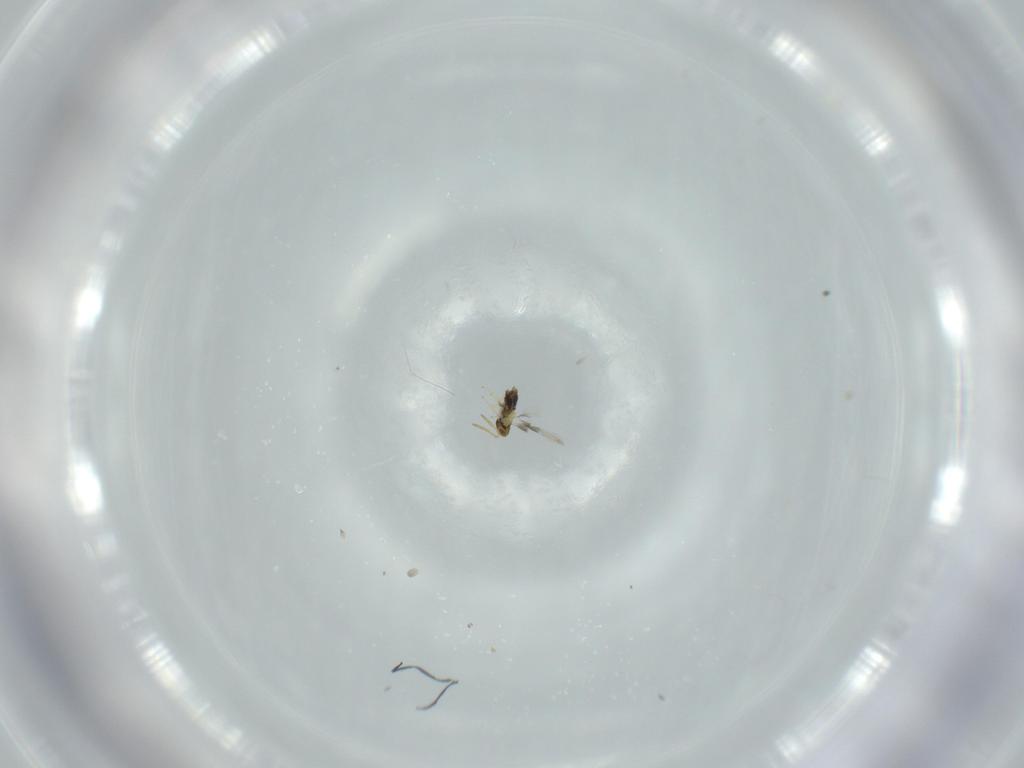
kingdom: Animalia
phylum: Arthropoda
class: Insecta
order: Hymenoptera
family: Aphelinidae
